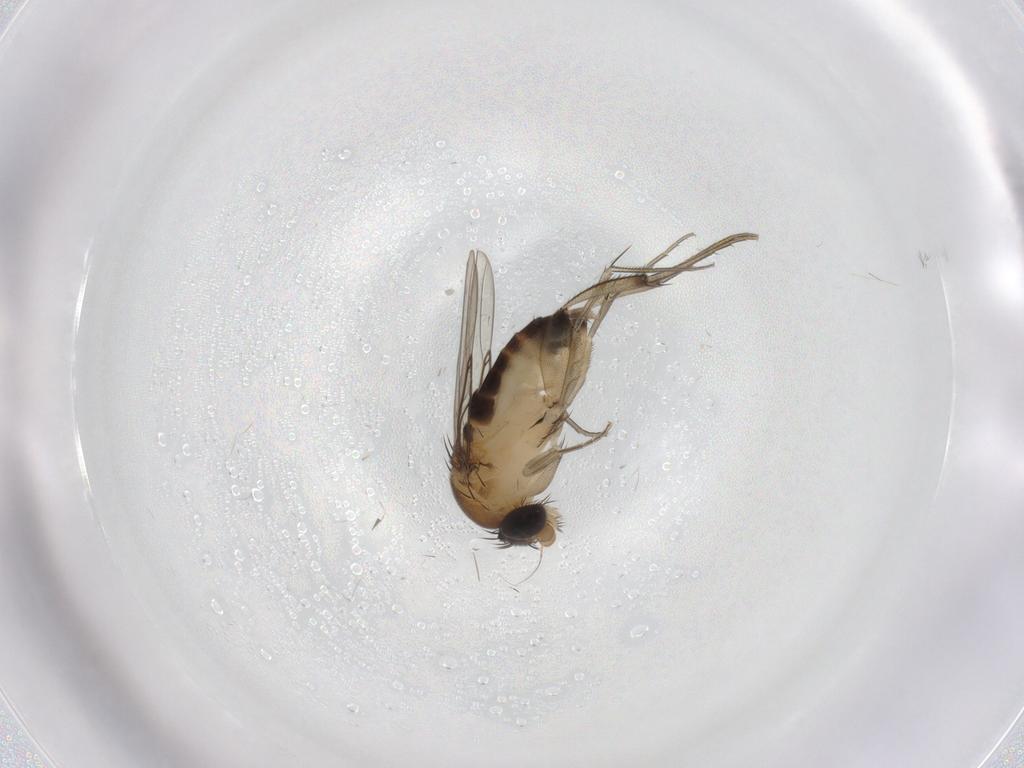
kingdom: Animalia
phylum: Arthropoda
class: Insecta
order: Diptera
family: Phoridae
